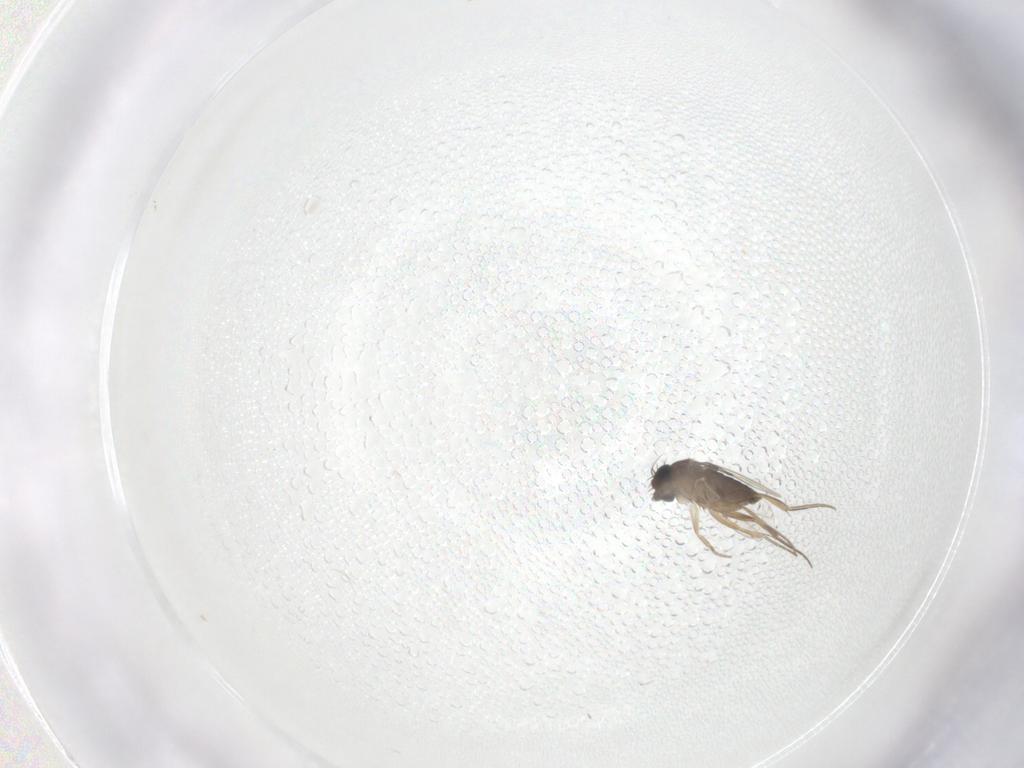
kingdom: Animalia
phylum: Arthropoda
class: Insecta
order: Diptera
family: Phoridae
